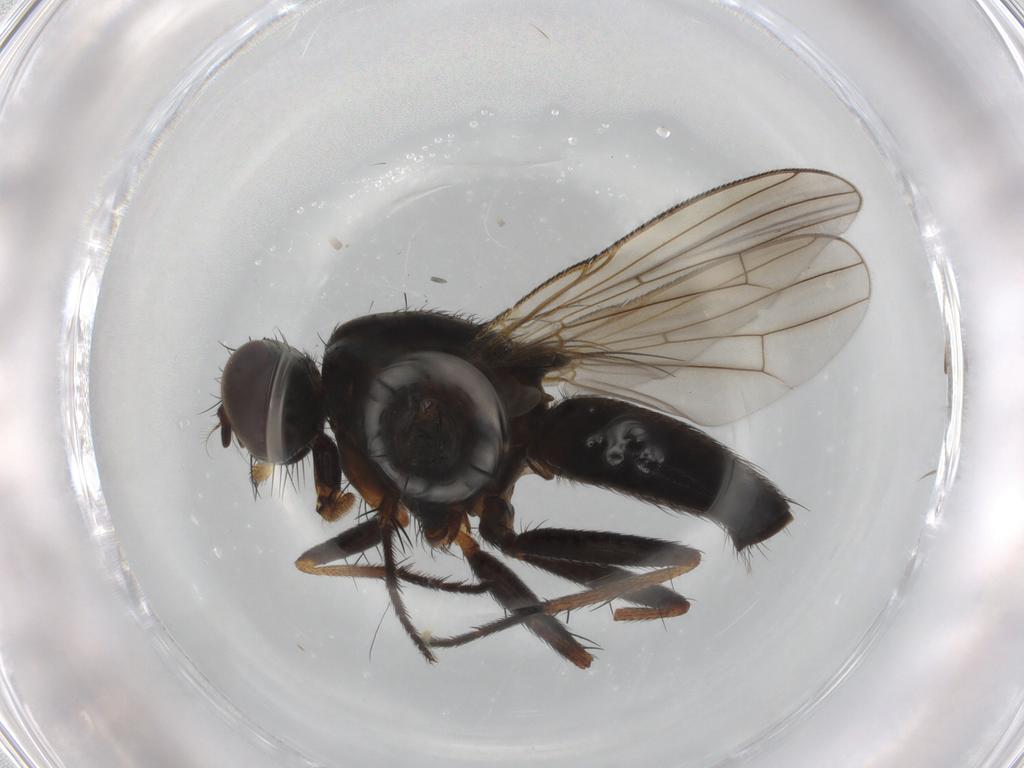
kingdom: Animalia
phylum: Arthropoda
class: Insecta
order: Diptera
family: Muscidae
